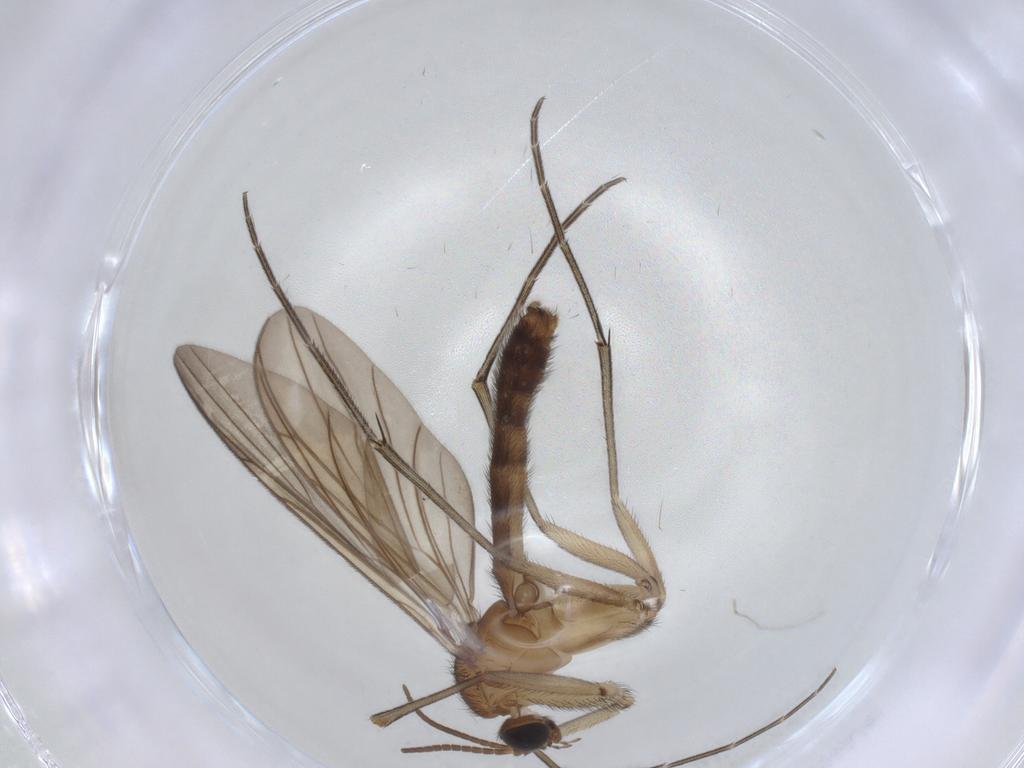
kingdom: Animalia
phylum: Arthropoda
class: Insecta
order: Diptera
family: Keroplatidae
